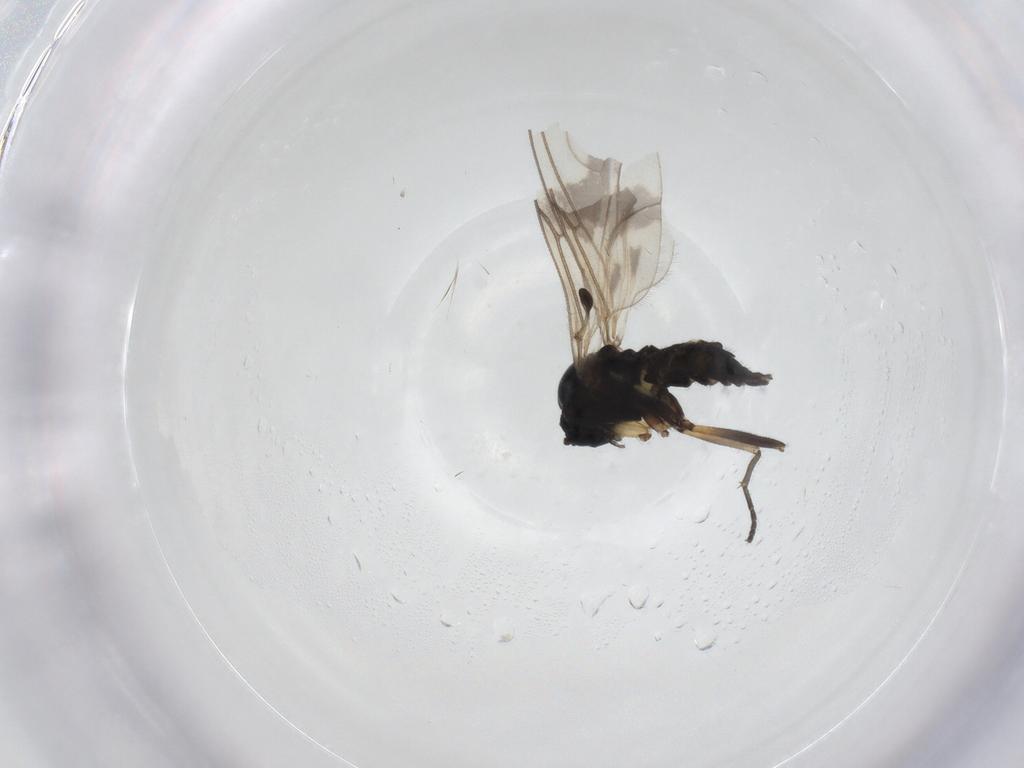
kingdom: Animalia
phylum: Arthropoda
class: Insecta
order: Diptera
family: Sciaridae
